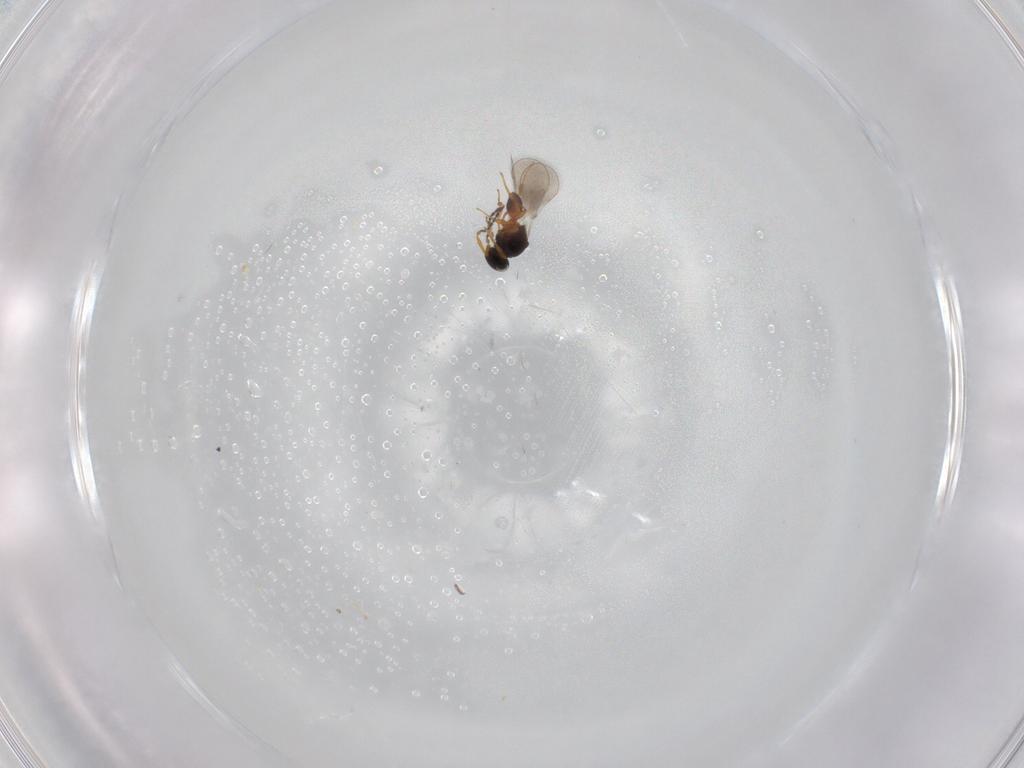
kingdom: Animalia
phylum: Arthropoda
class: Insecta
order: Hymenoptera
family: Platygastridae
